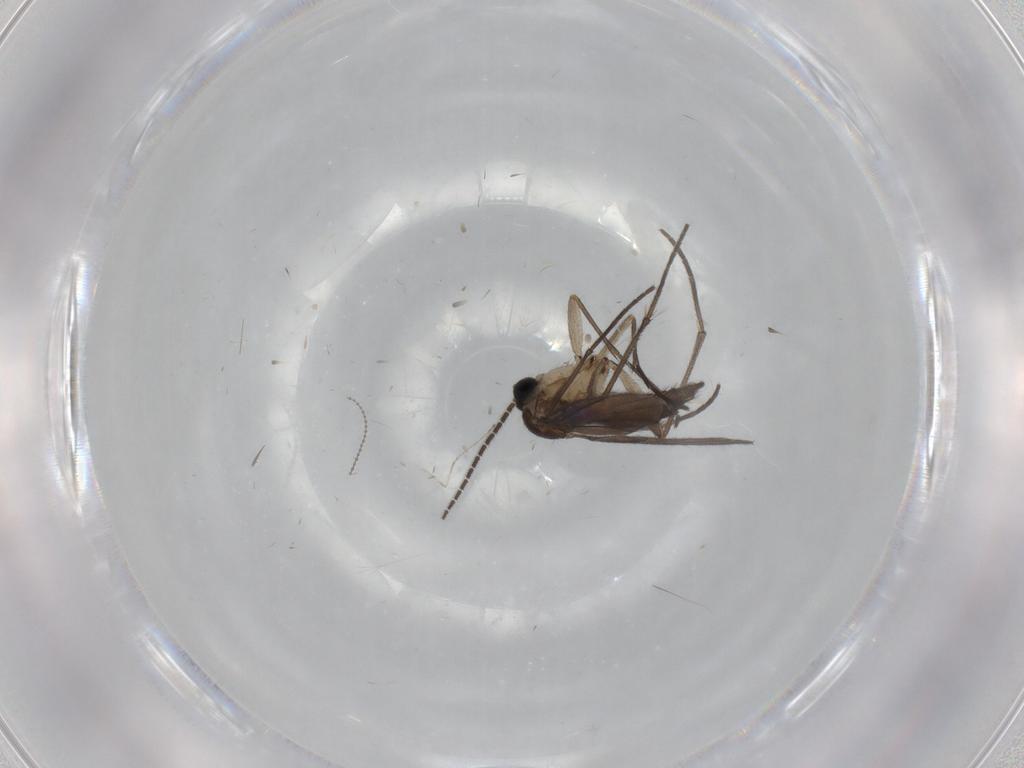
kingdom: Animalia
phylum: Arthropoda
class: Insecta
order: Diptera
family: Sciaridae
